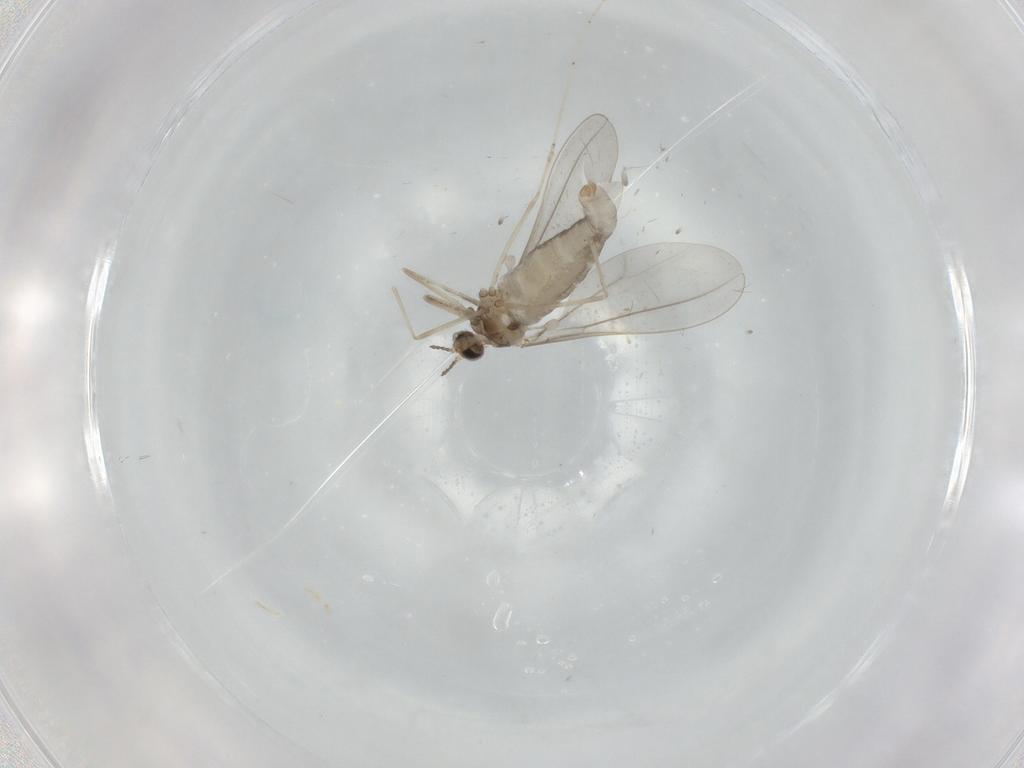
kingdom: Animalia
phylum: Arthropoda
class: Insecta
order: Diptera
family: Cecidomyiidae
